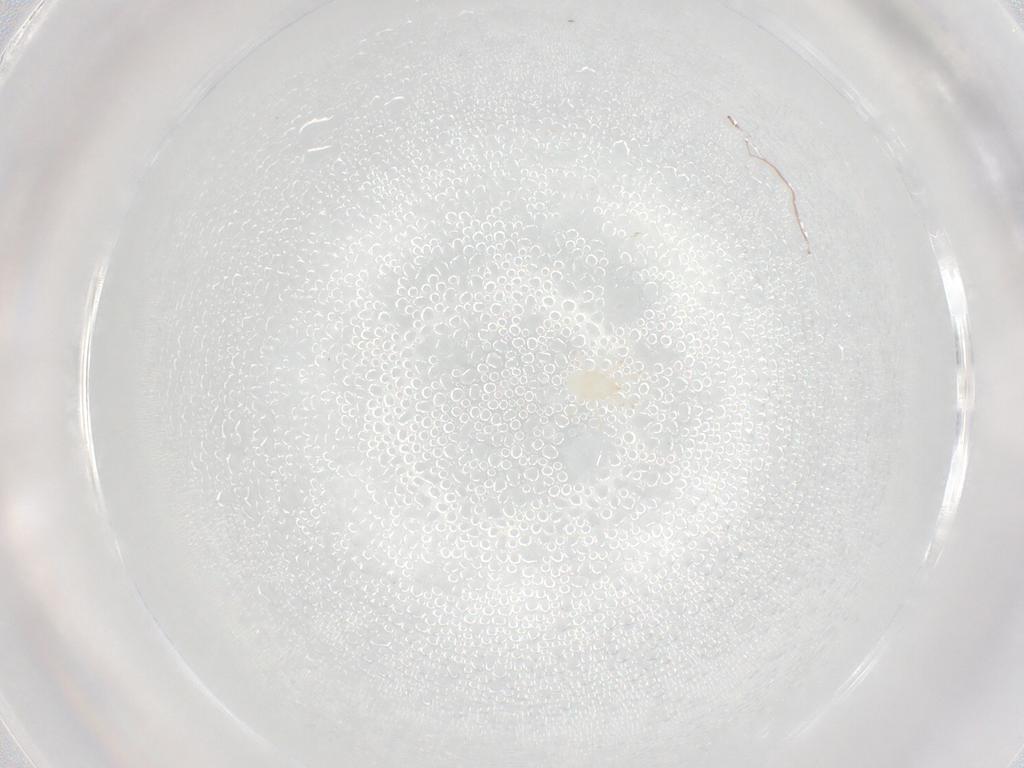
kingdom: Animalia
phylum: Arthropoda
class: Arachnida
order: Mesostigmata
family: Phytoseiidae
